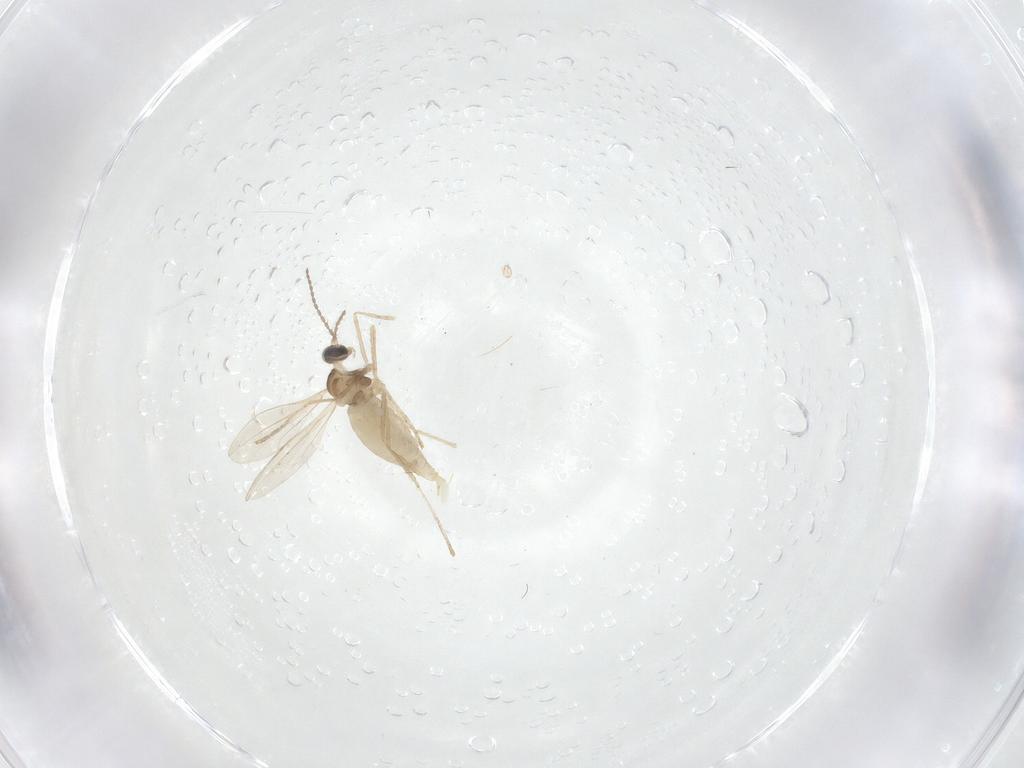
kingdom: Animalia
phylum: Arthropoda
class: Insecta
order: Diptera
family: Cecidomyiidae
